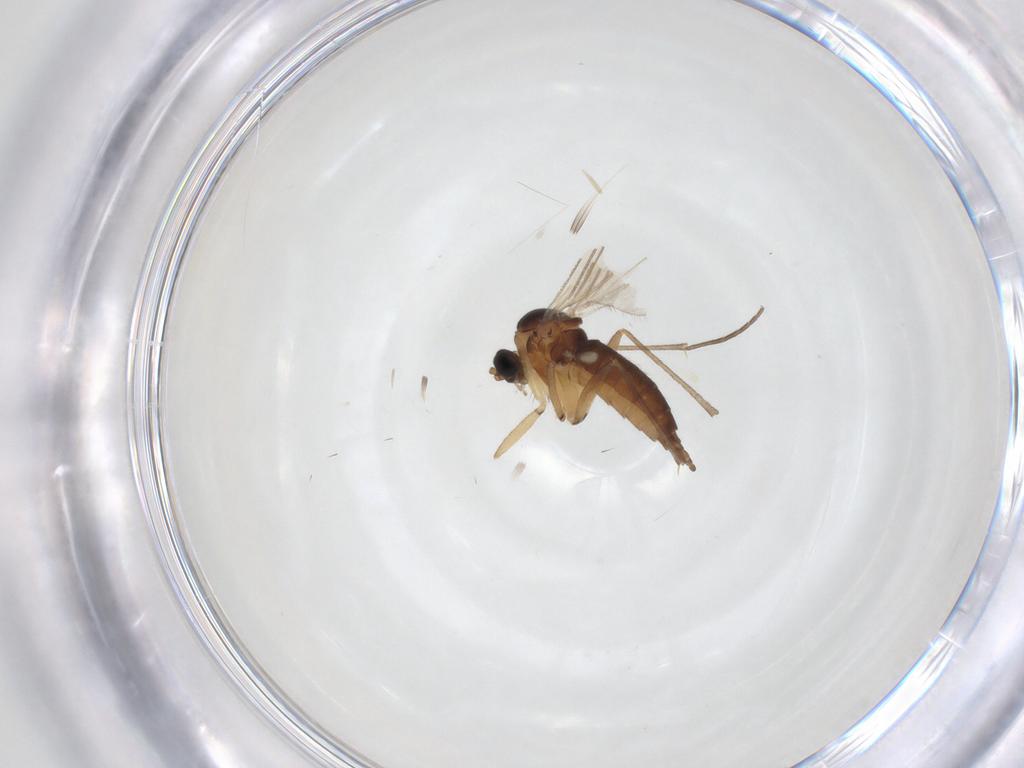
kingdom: Animalia
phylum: Arthropoda
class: Insecta
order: Diptera
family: Sciaridae
